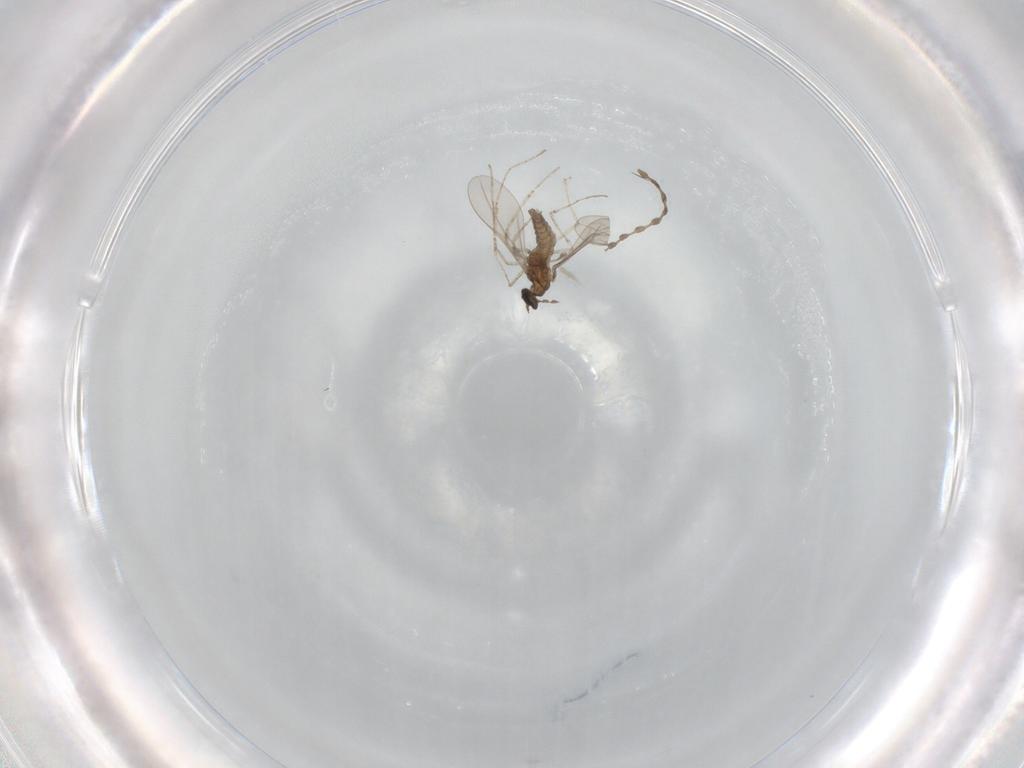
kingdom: Animalia
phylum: Arthropoda
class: Insecta
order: Diptera
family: Cecidomyiidae
